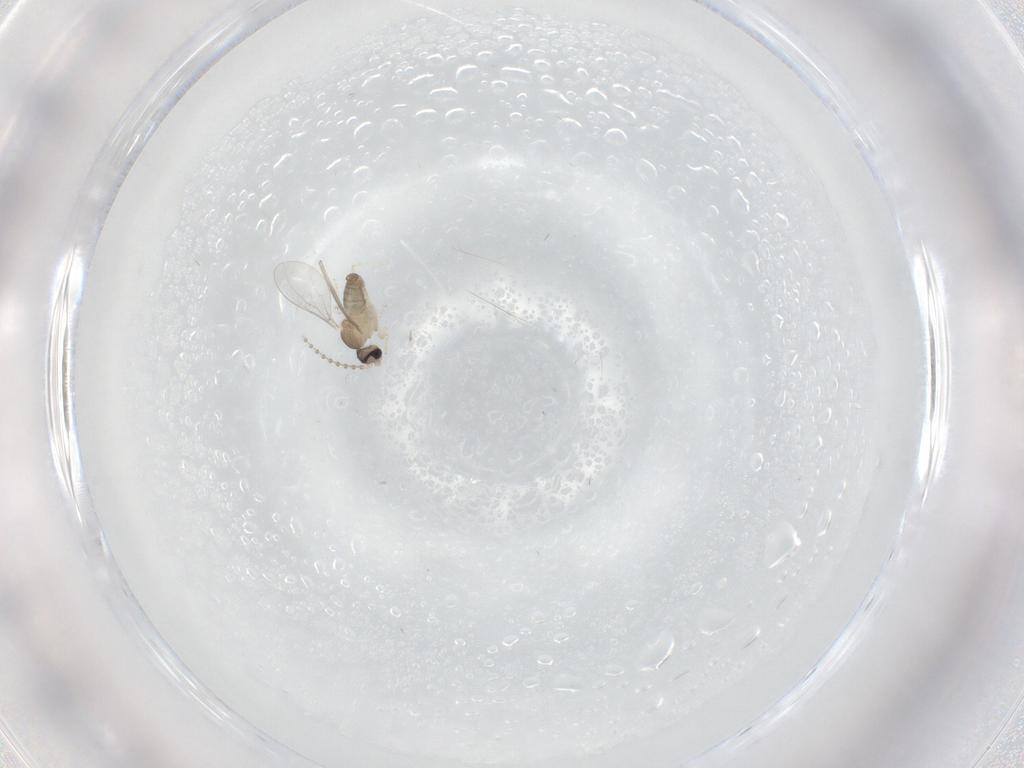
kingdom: Animalia
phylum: Arthropoda
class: Insecta
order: Diptera
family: Cecidomyiidae
